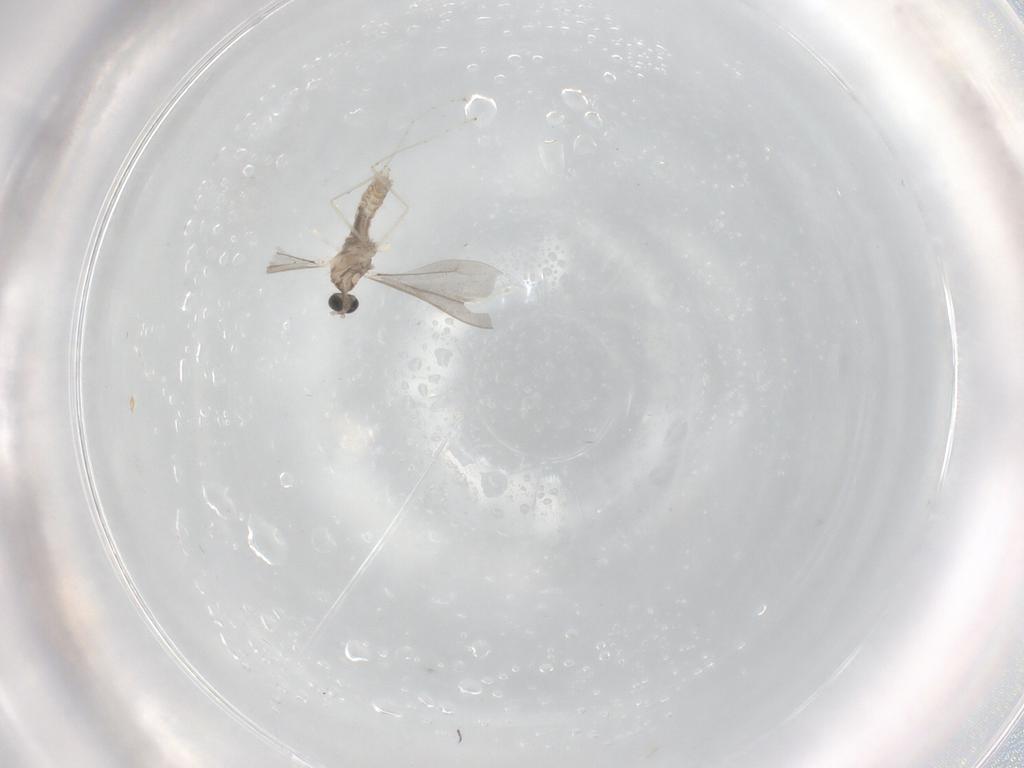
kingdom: Animalia
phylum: Arthropoda
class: Insecta
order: Diptera
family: Cecidomyiidae
